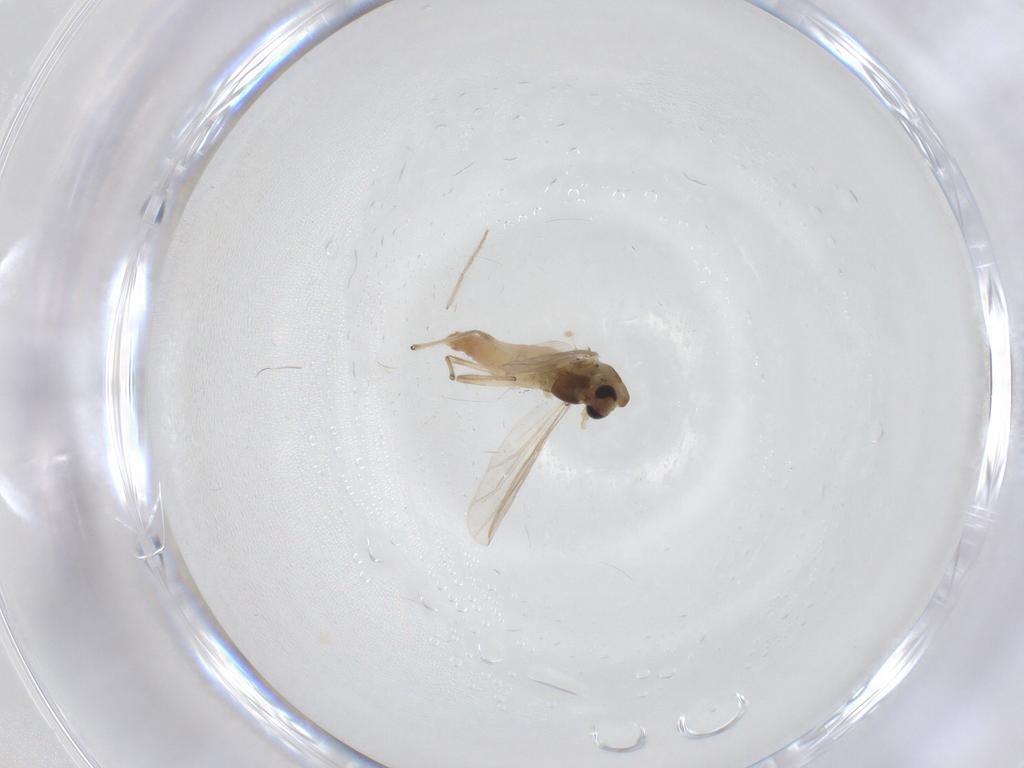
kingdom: Animalia
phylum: Arthropoda
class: Insecta
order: Diptera
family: Chironomidae
